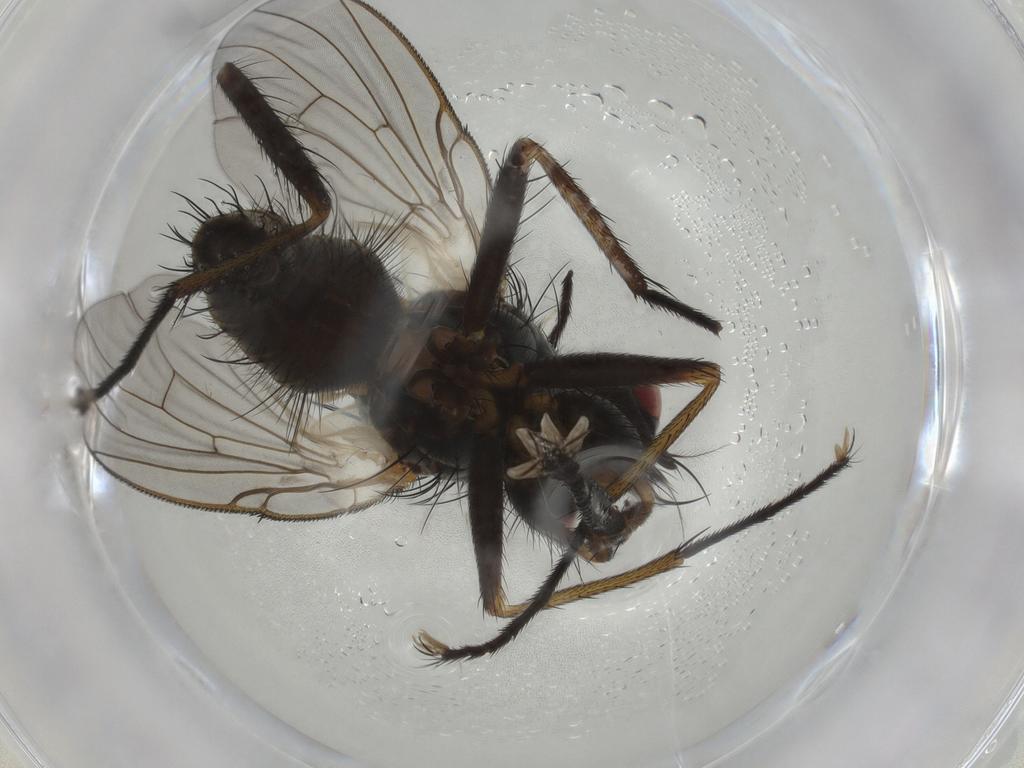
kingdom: Animalia
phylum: Arthropoda
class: Insecta
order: Diptera
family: Muscidae
